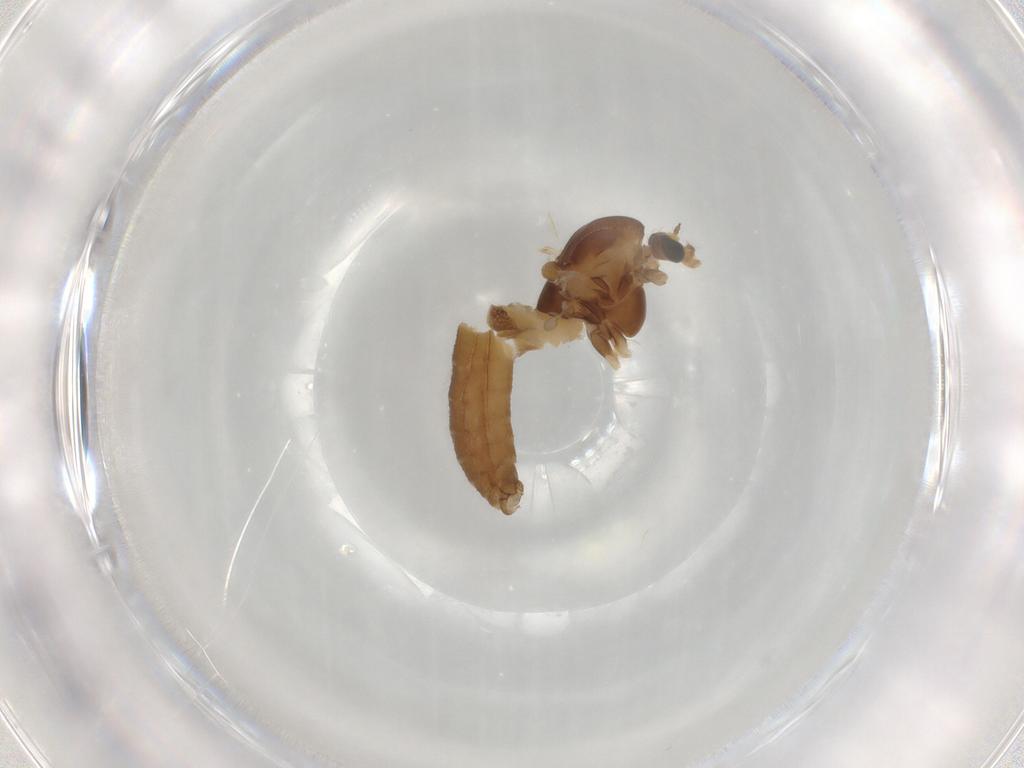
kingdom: Animalia
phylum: Arthropoda
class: Insecta
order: Diptera
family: Chironomidae
